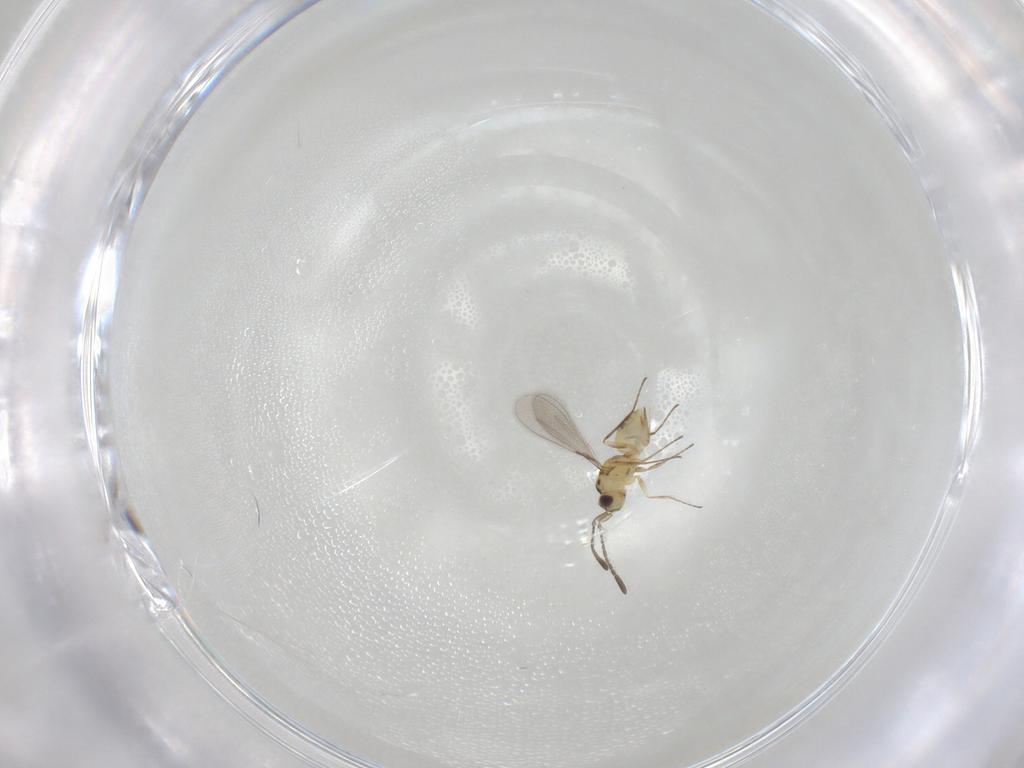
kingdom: Animalia
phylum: Arthropoda
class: Insecta
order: Hymenoptera
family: Mymaridae
